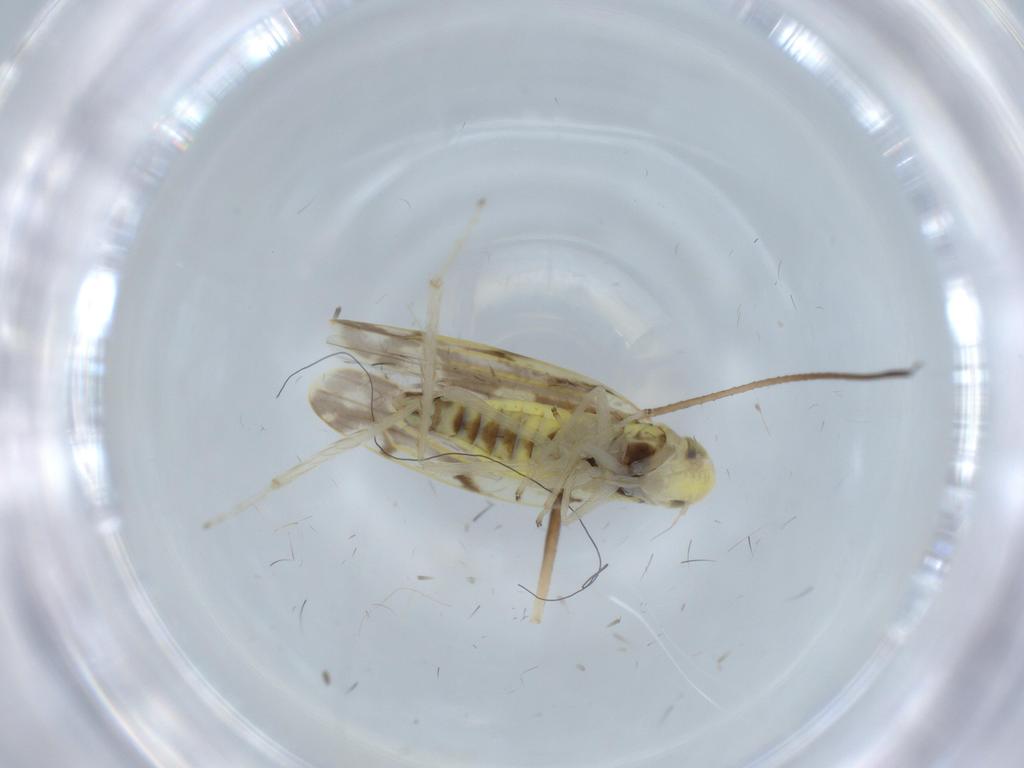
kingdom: Animalia
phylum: Arthropoda
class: Insecta
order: Hemiptera
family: Cicadellidae
